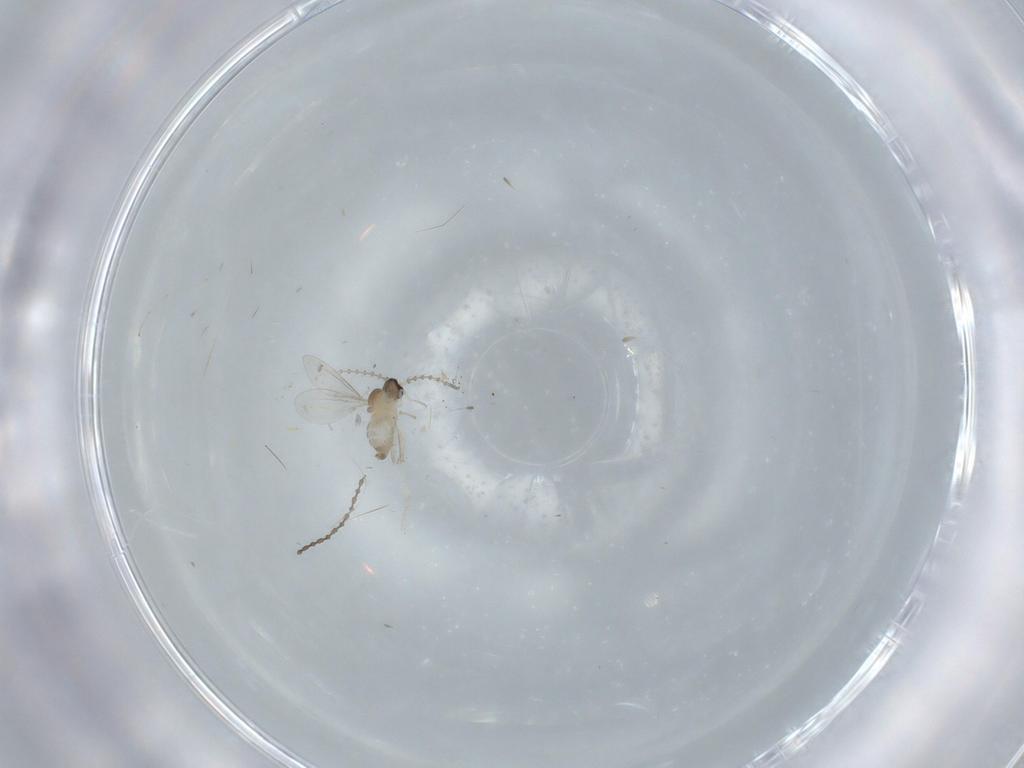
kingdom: Animalia
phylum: Arthropoda
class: Insecta
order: Diptera
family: Cecidomyiidae
